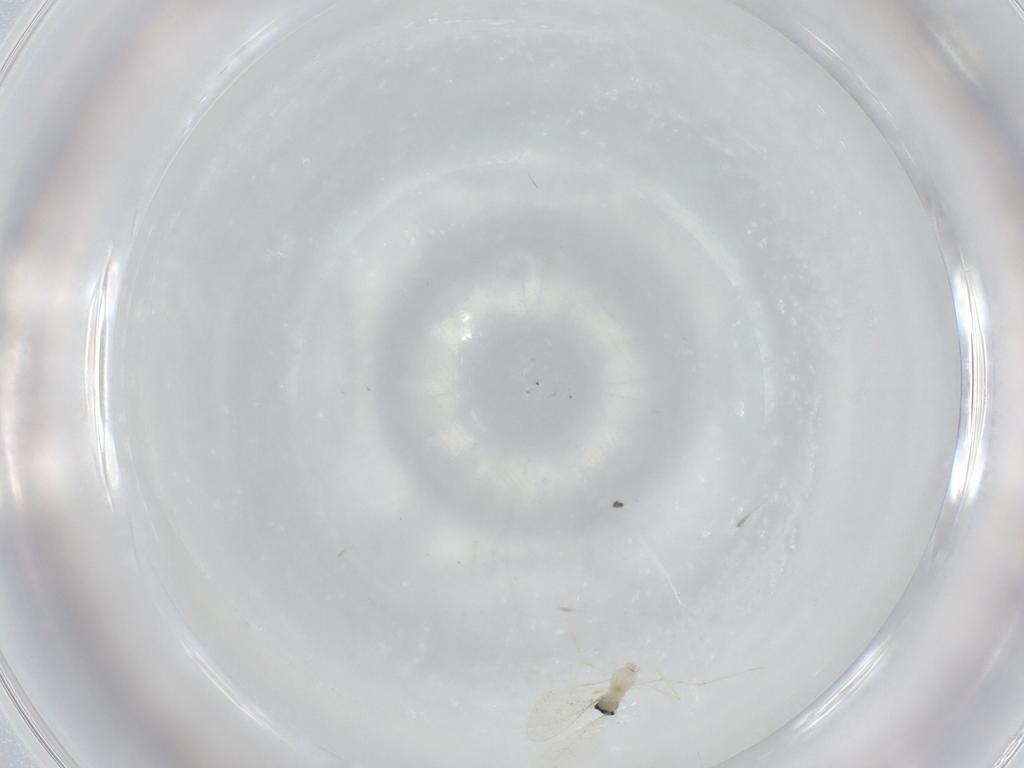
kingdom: Animalia
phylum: Arthropoda
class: Insecta
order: Diptera
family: Cecidomyiidae
